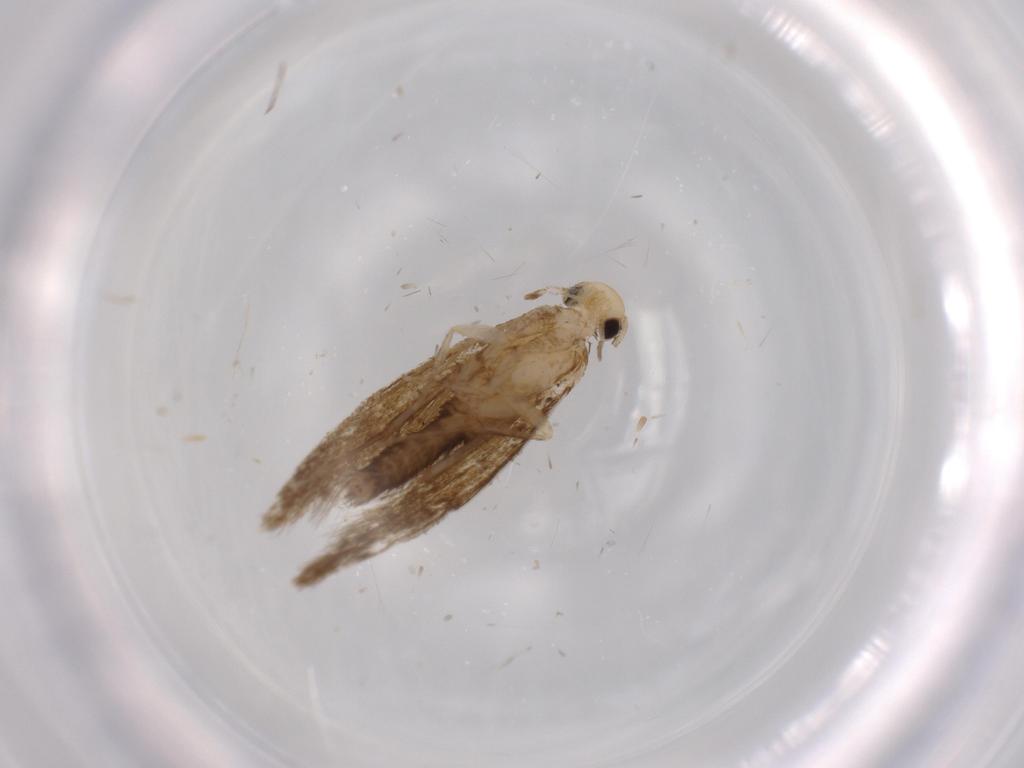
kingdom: Animalia
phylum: Arthropoda
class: Insecta
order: Lepidoptera
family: Tineidae
